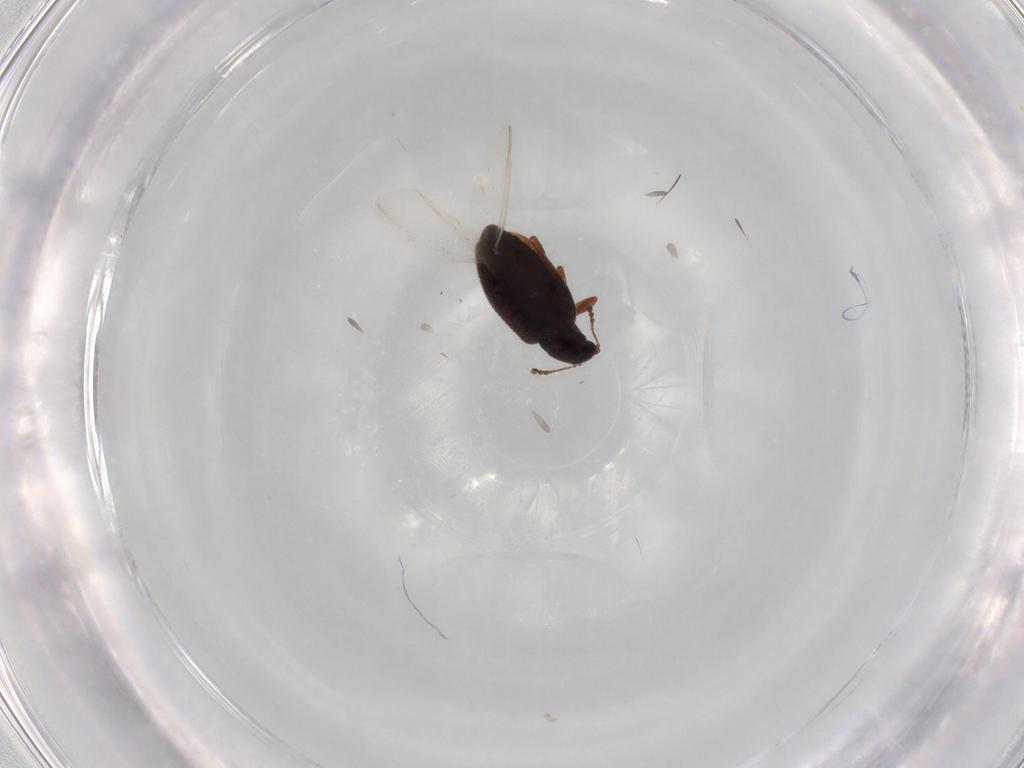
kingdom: Animalia
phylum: Arthropoda
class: Insecta
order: Coleoptera
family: Latridiidae
